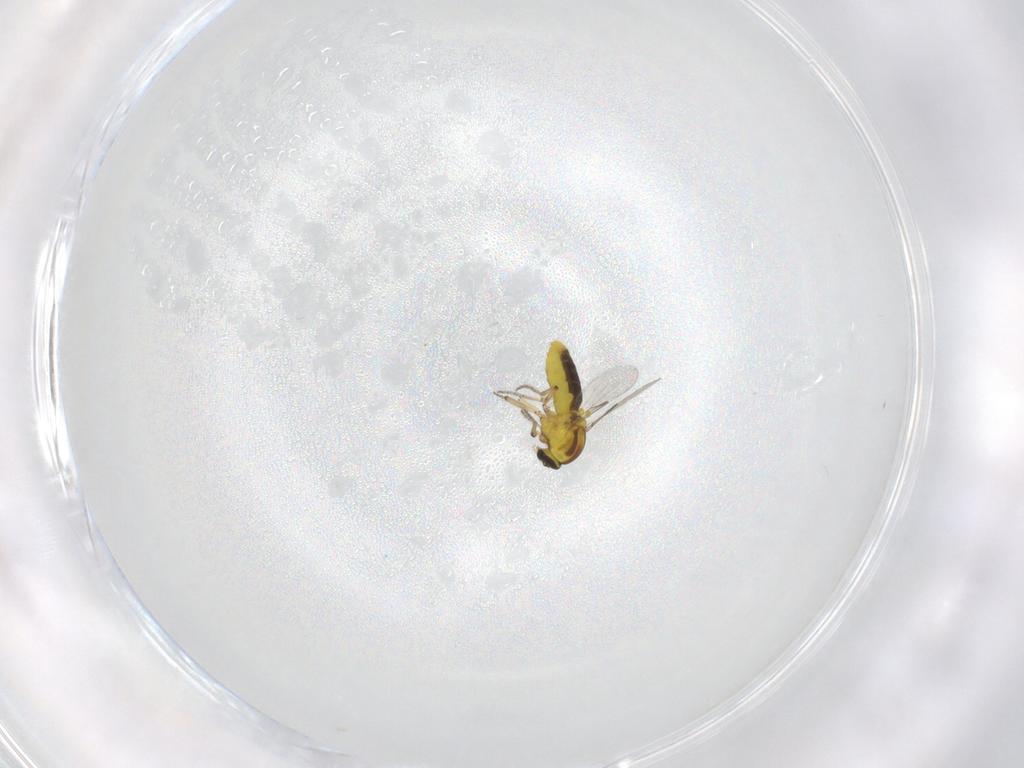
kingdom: Animalia
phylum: Arthropoda
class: Insecta
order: Diptera
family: Ceratopogonidae
